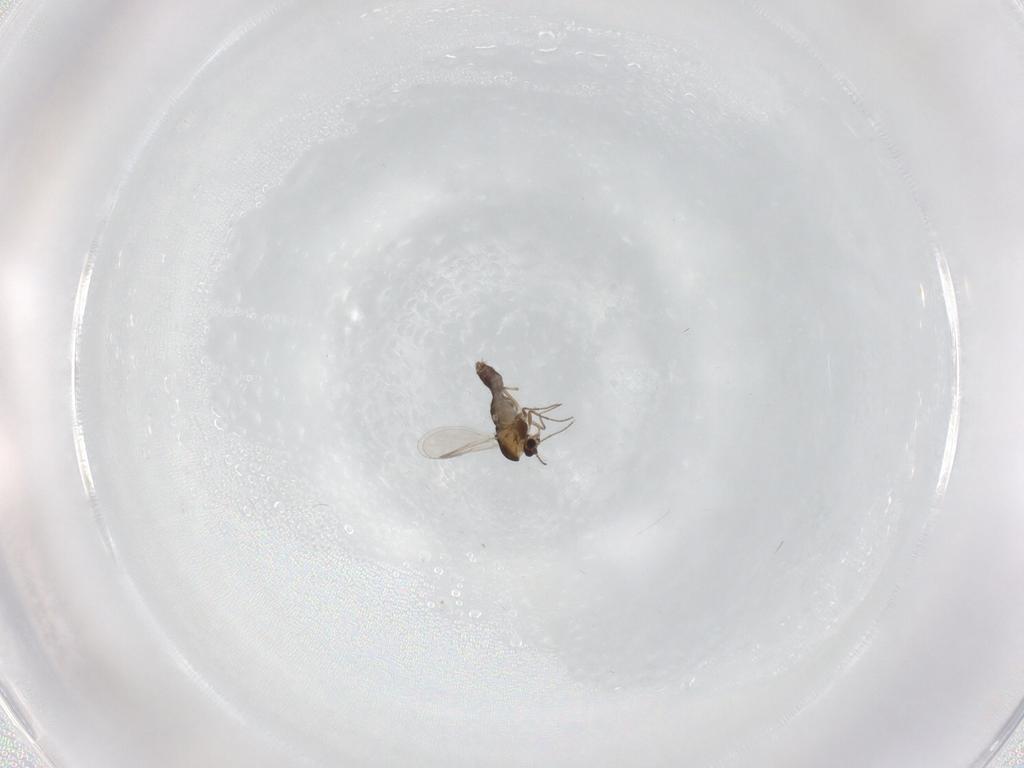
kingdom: Animalia
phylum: Arthropoda
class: Insecta
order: Diptera
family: Chironomidae
